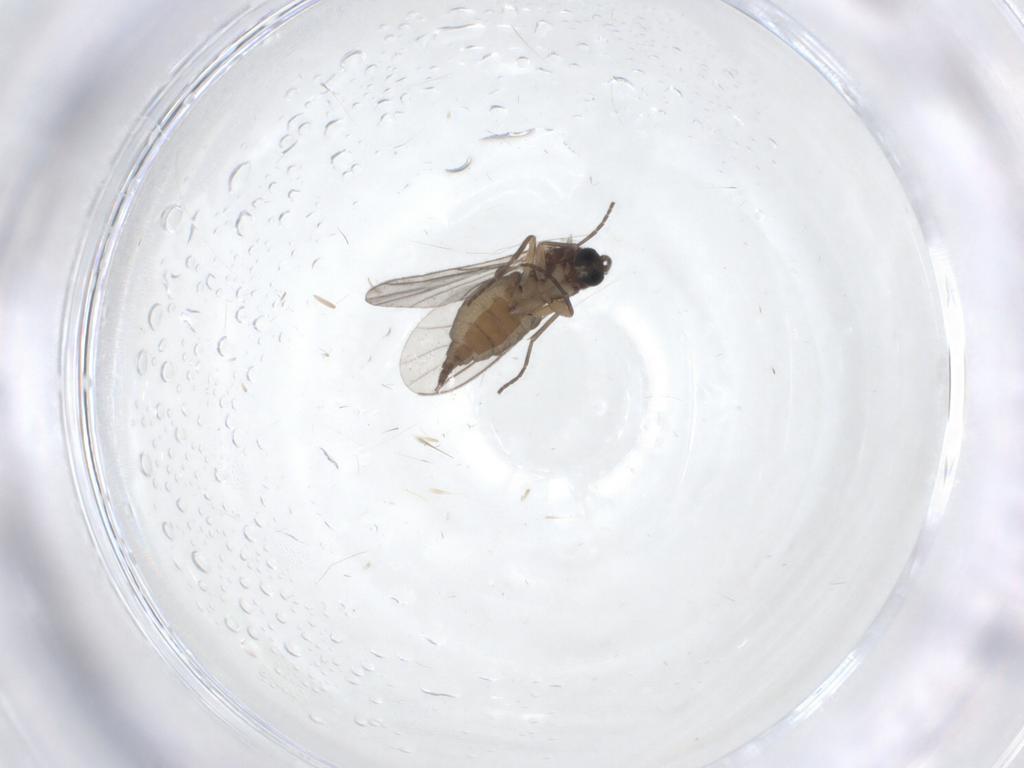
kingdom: Animalia
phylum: Arthropoda
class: Insecta
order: Diptera
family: Sciaridae
